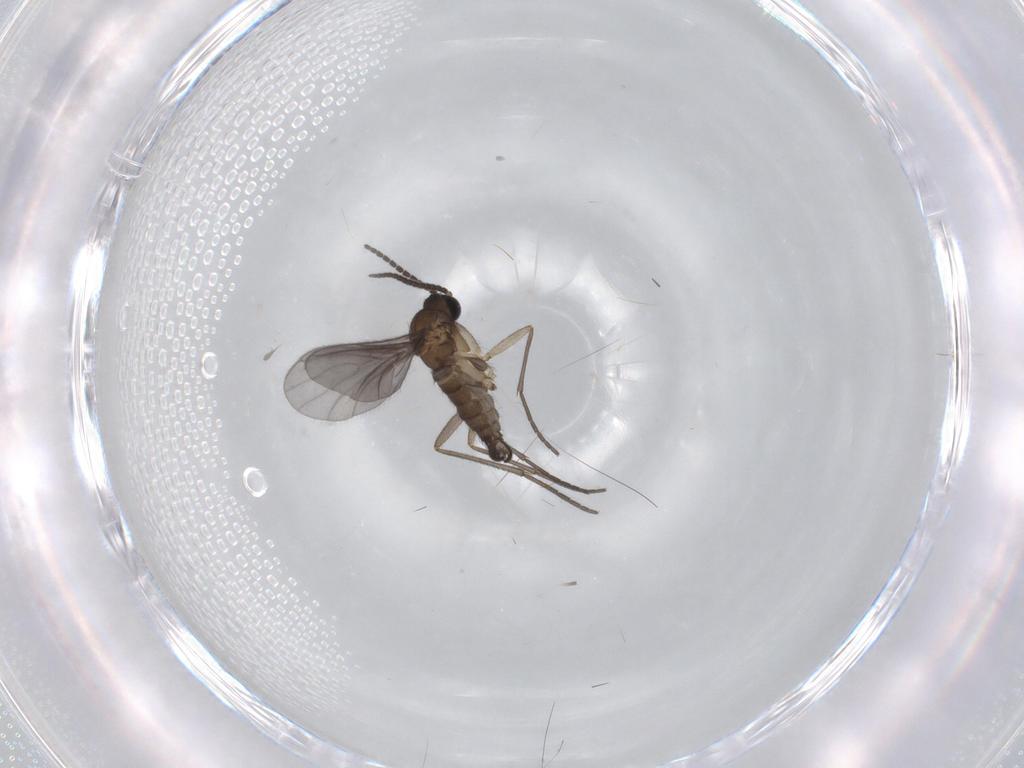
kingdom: Animalia
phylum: Arthropoda
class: Insecta
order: Diptera
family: Sciaridae
